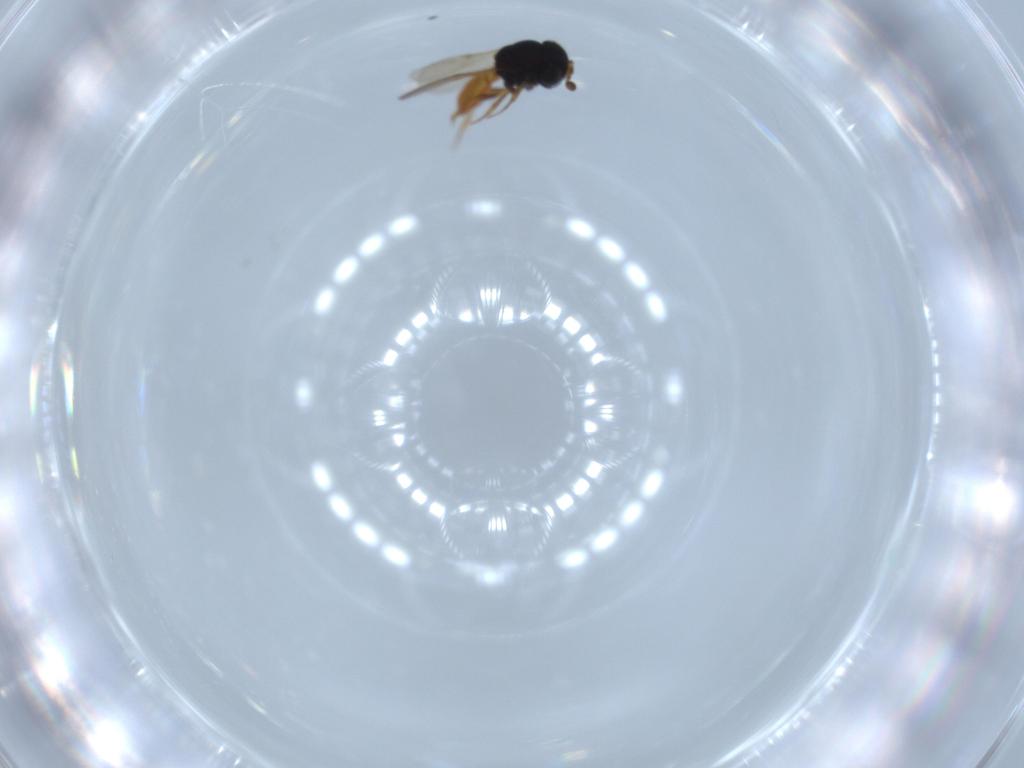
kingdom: Animalia
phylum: Arthropoda
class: Insecta
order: Hymenoptera
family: Scelionidae
